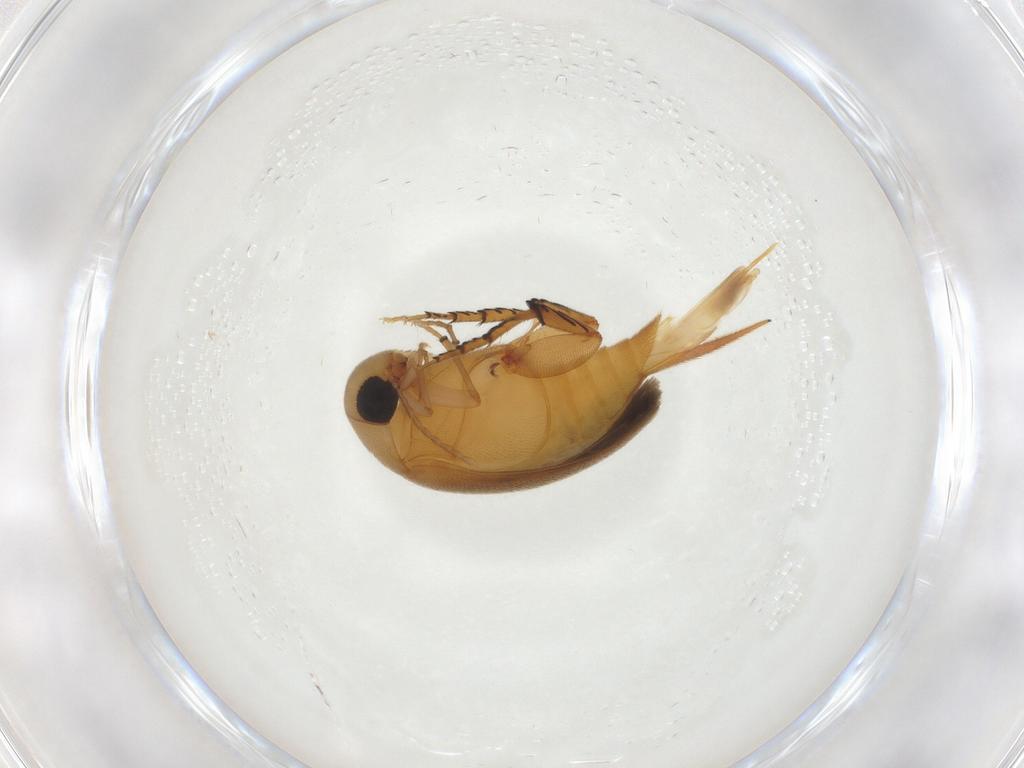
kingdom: Animalia
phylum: Arthropoda
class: Insecta
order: Coleoptera
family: Mordellidae
